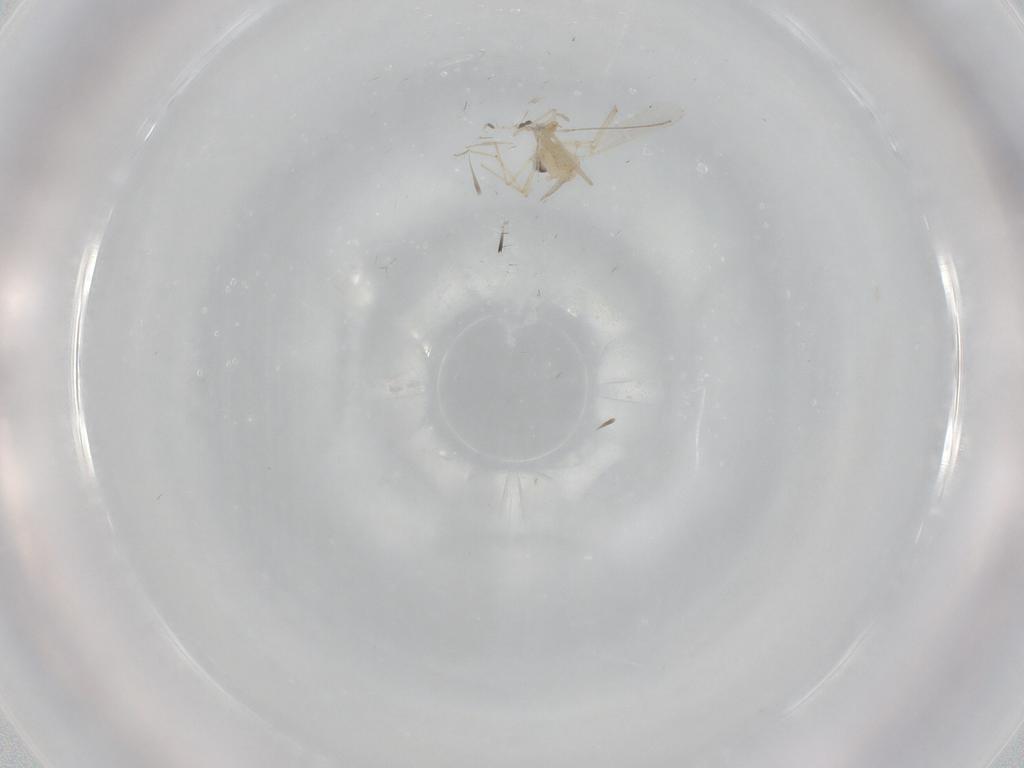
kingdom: Animalia
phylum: Arthropoda
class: Insecta
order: Diptera
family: Cecidomyiidae
